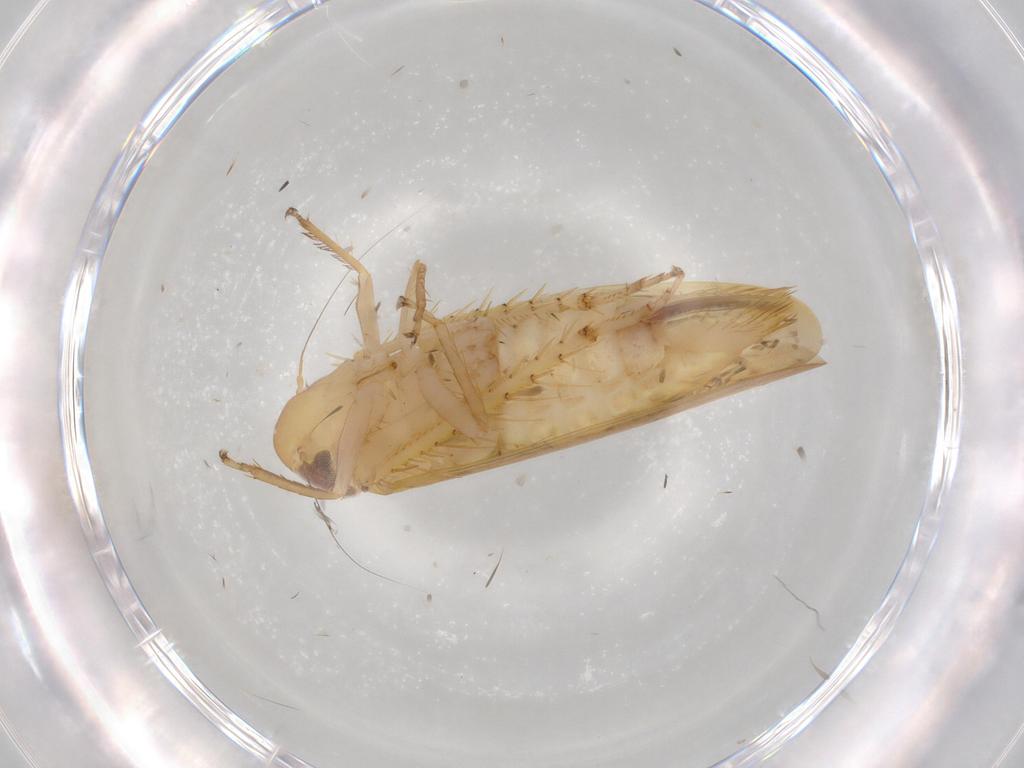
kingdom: Animalia
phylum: Arthropoda
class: Insecta
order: Hemiptera
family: Cicadellidae
